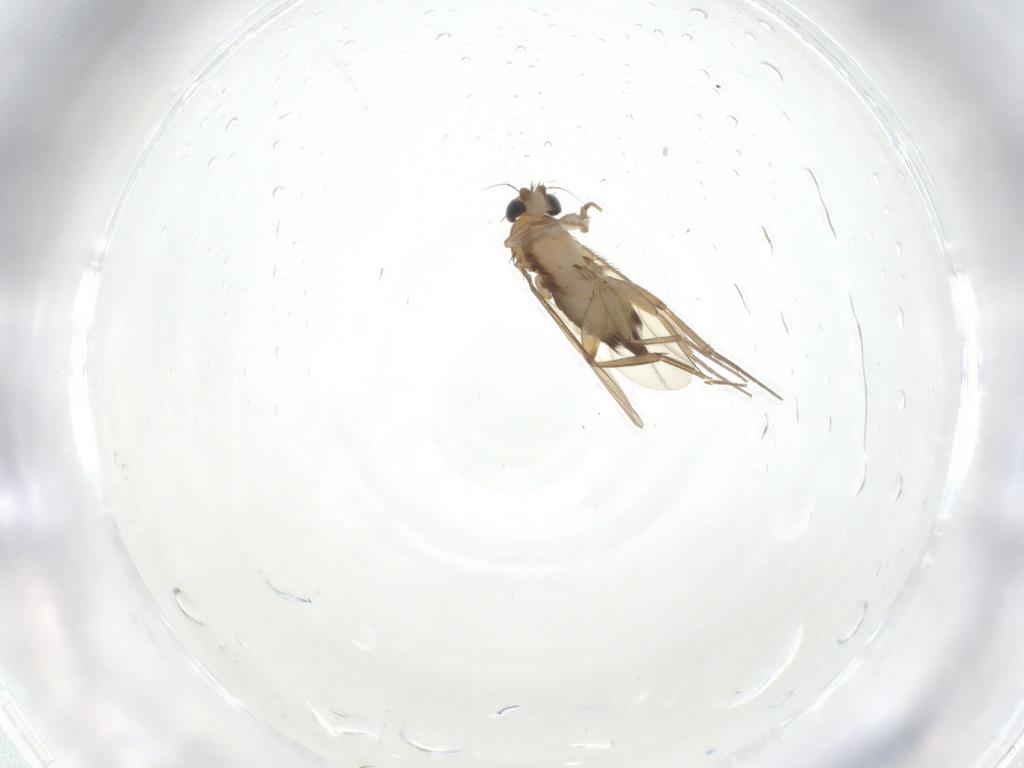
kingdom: Animalia
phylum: Arthropoda
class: Insecta
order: Diptera
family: Phoridae
